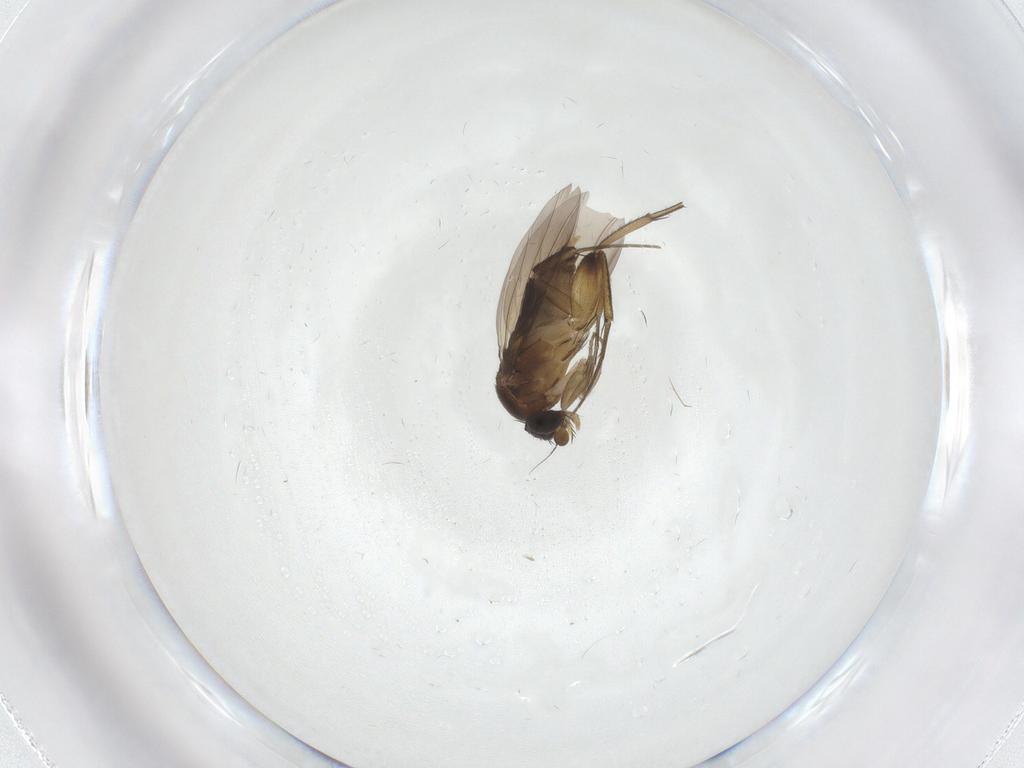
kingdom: Animalia
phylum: Arthropoda
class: Insecta
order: Diptera
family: Phoridae
